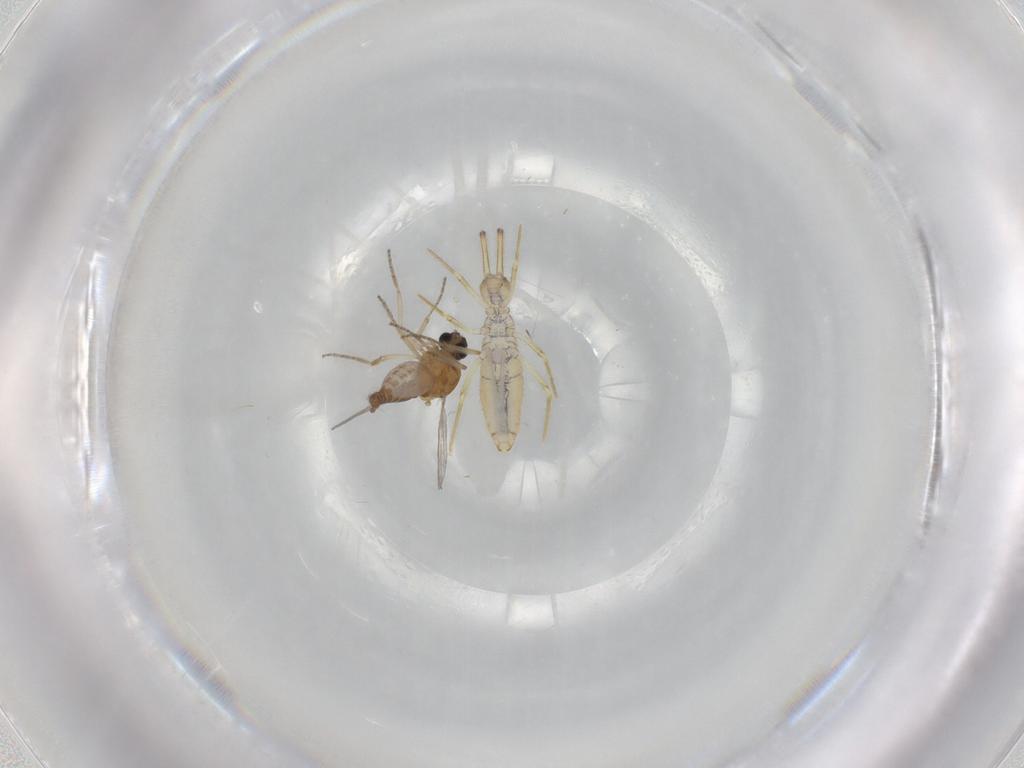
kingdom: Animalia
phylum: Arthropoda
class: Collembola
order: Entomobryomorpha
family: Entomobryidae
